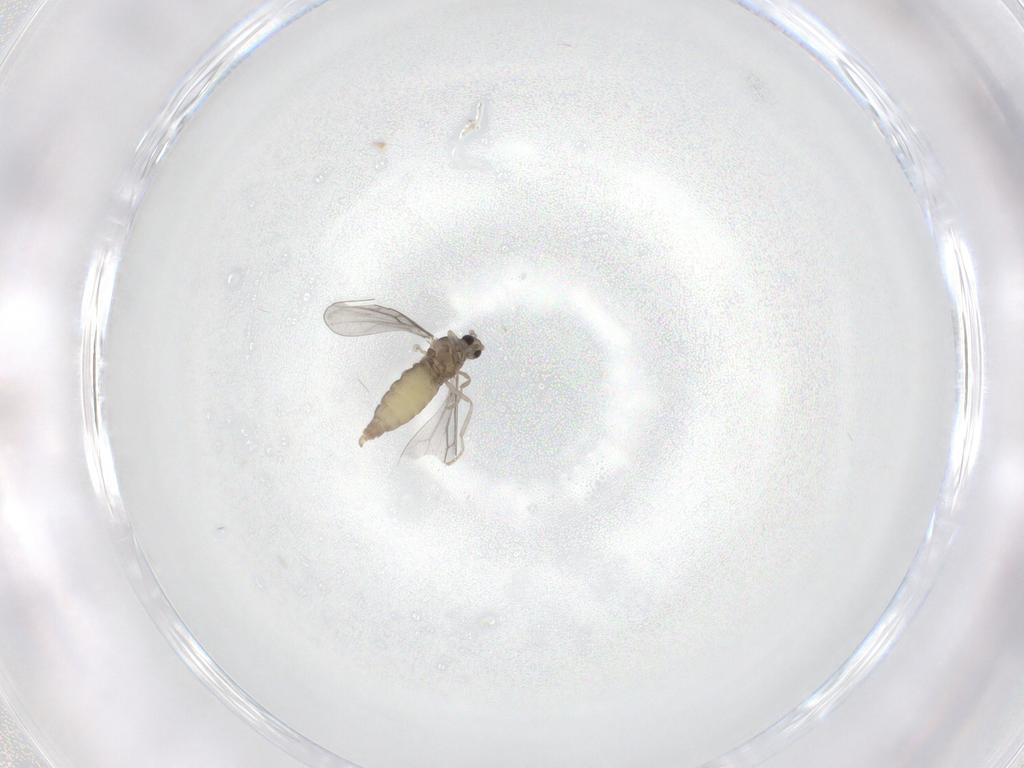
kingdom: Animalia
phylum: Arthropoda
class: Insecta
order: Diptera
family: Cecidomyiidae
